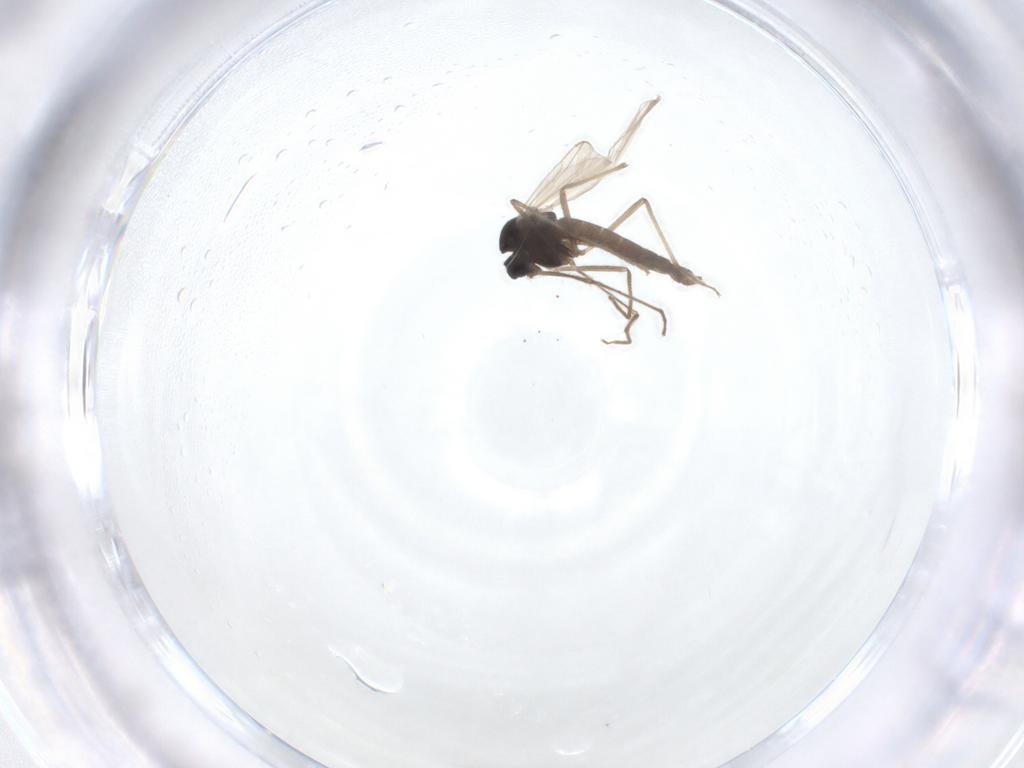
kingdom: Animalia
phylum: Arthropoda
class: Insecta
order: Diptera
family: Chironomidae
